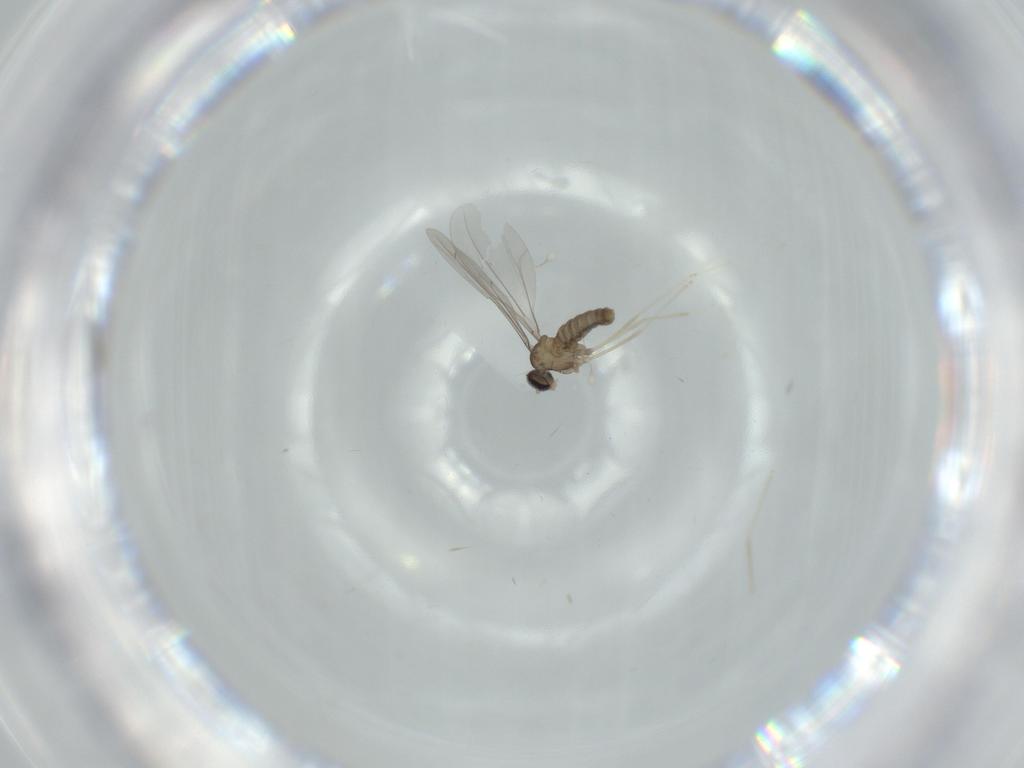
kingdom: Animalia
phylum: Arthropoda
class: Insecta
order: Diptera
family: Cecidomyiidae
